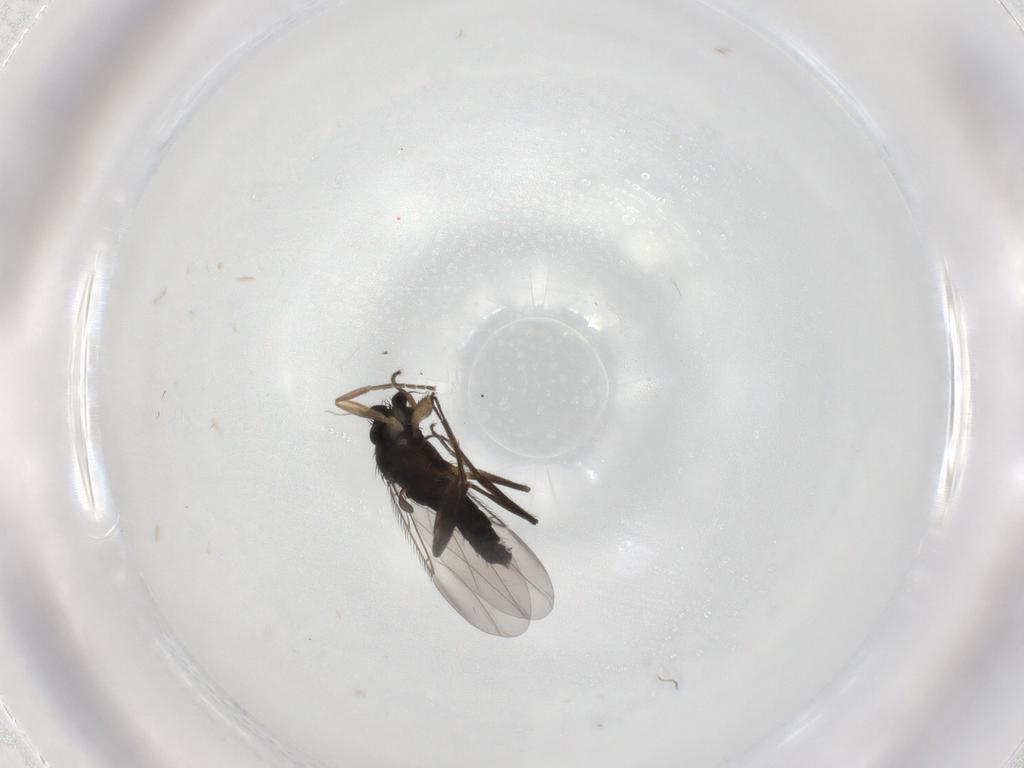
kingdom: Animalia
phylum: Arthropoda
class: Insecta
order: Diptera
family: Phoridae
